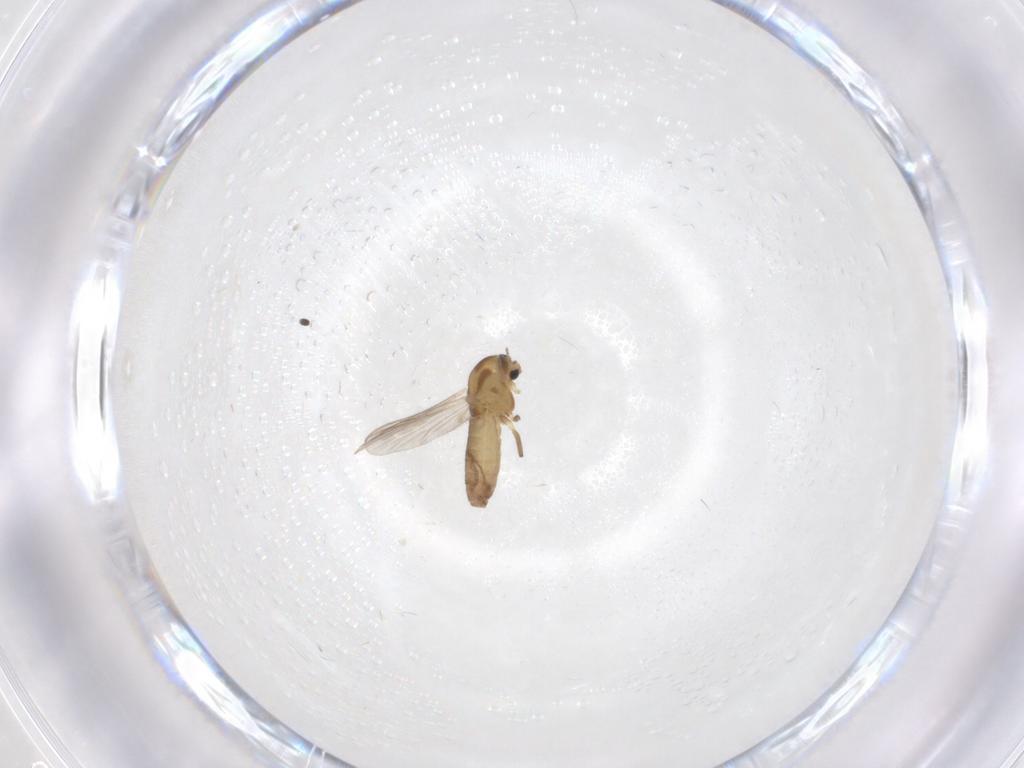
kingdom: Animalia
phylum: Arthropoda
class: Insecta
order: Diptera
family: Chironomidae
